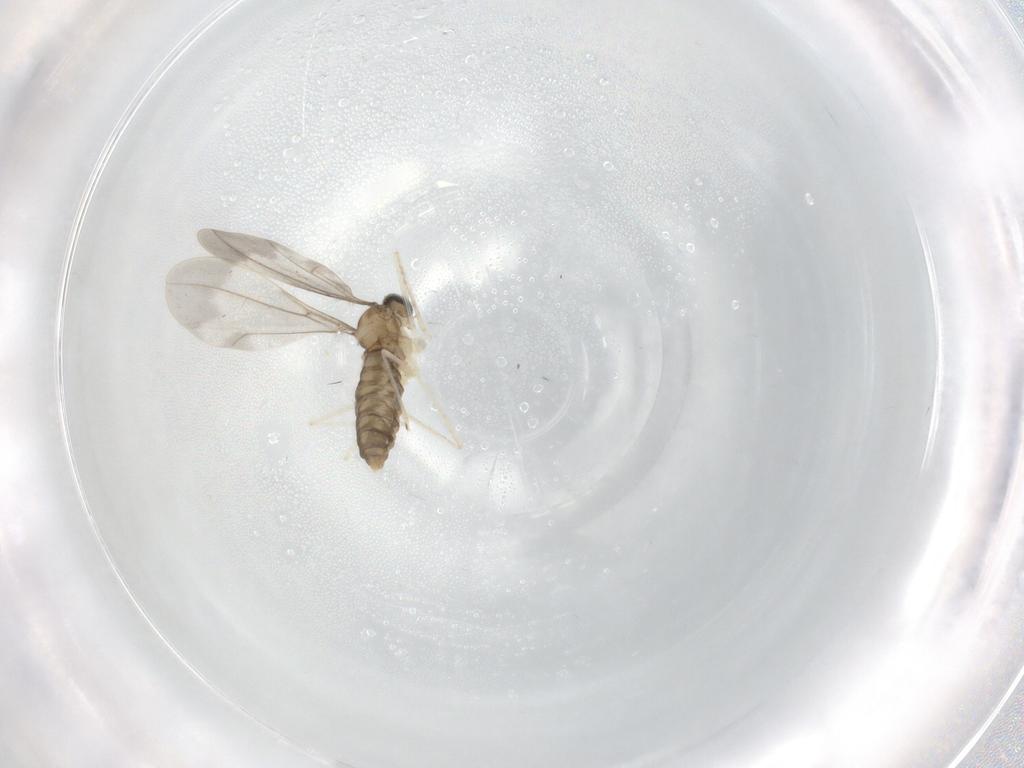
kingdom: Animalia
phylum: Arthropoda
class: Insecta
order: Diptera
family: Cecidomyiidae
